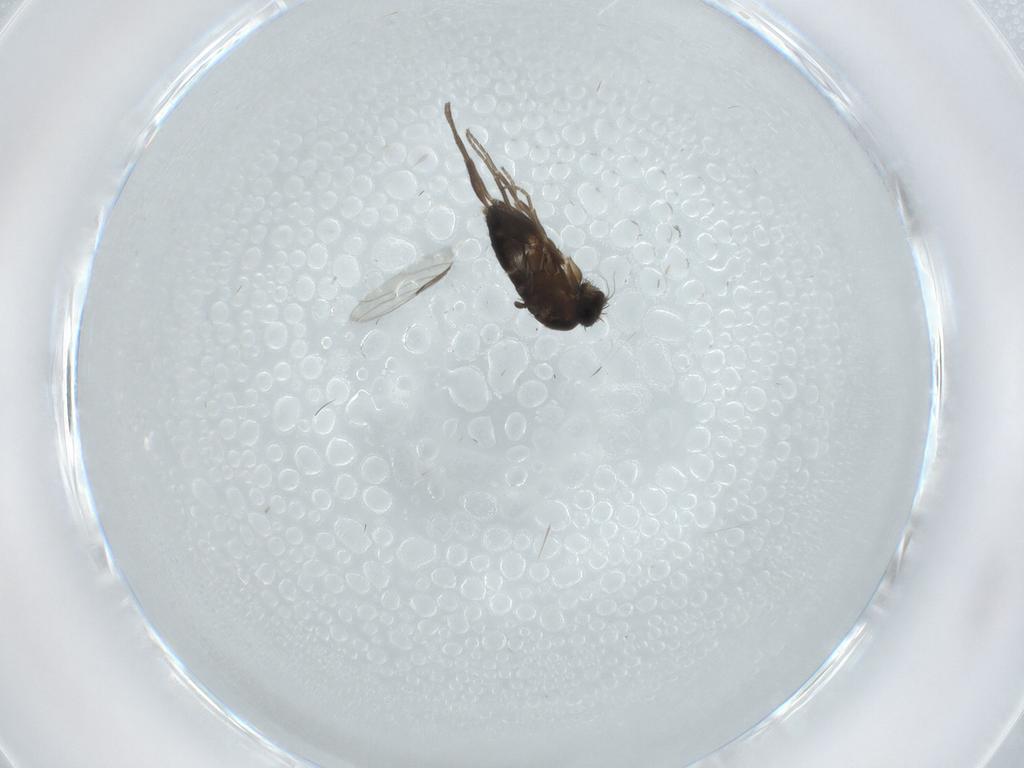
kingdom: Animalia
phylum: Arthropoda
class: Insecta
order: Diptera
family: Phoridae
